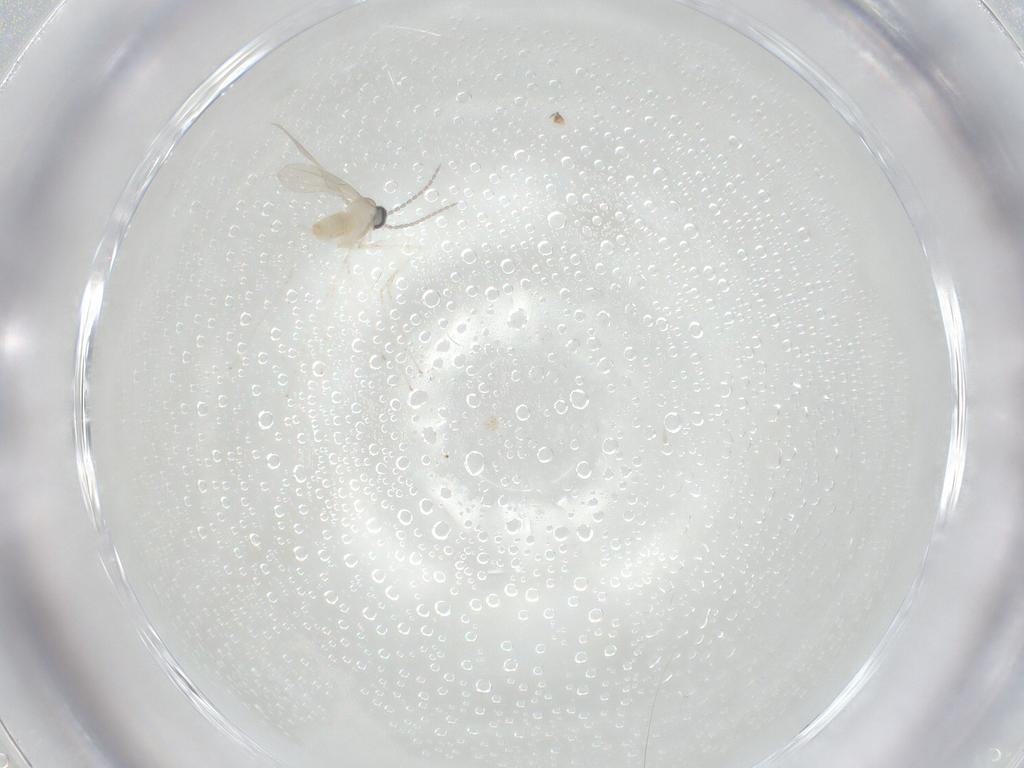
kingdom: Animalia
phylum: Arthropoda
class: Insecta
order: Diptera
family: Cecidomyiidae
